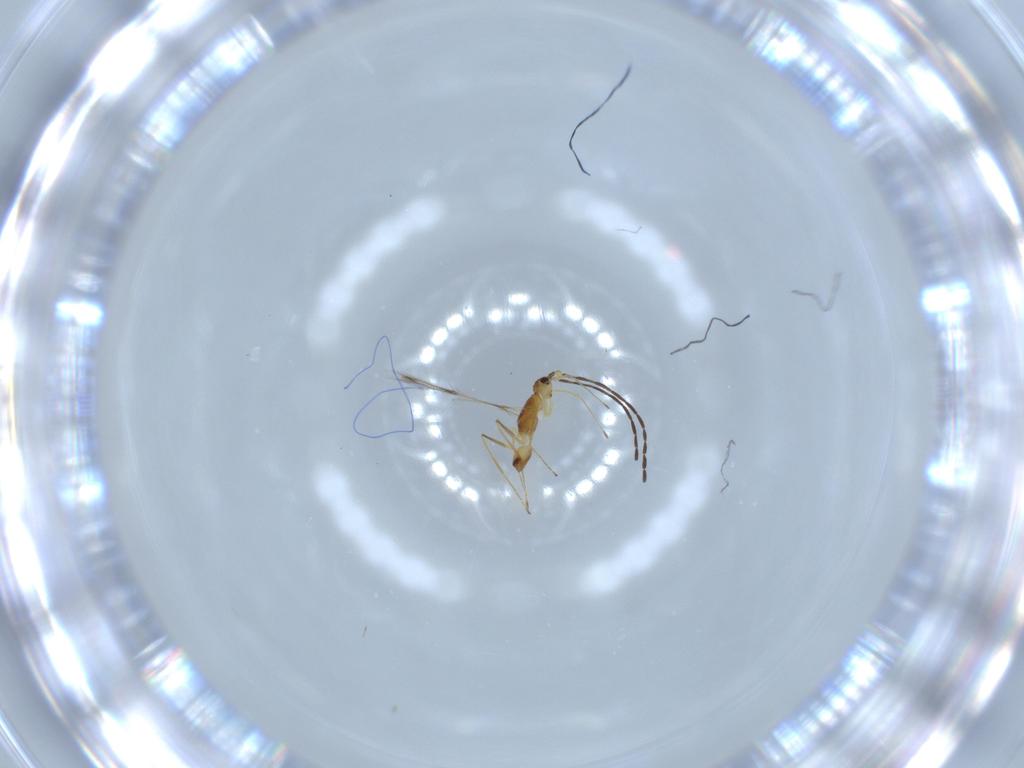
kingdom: Animalia
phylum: Arthropoda
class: Insecta
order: Hymenoptera
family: Mymaridae
